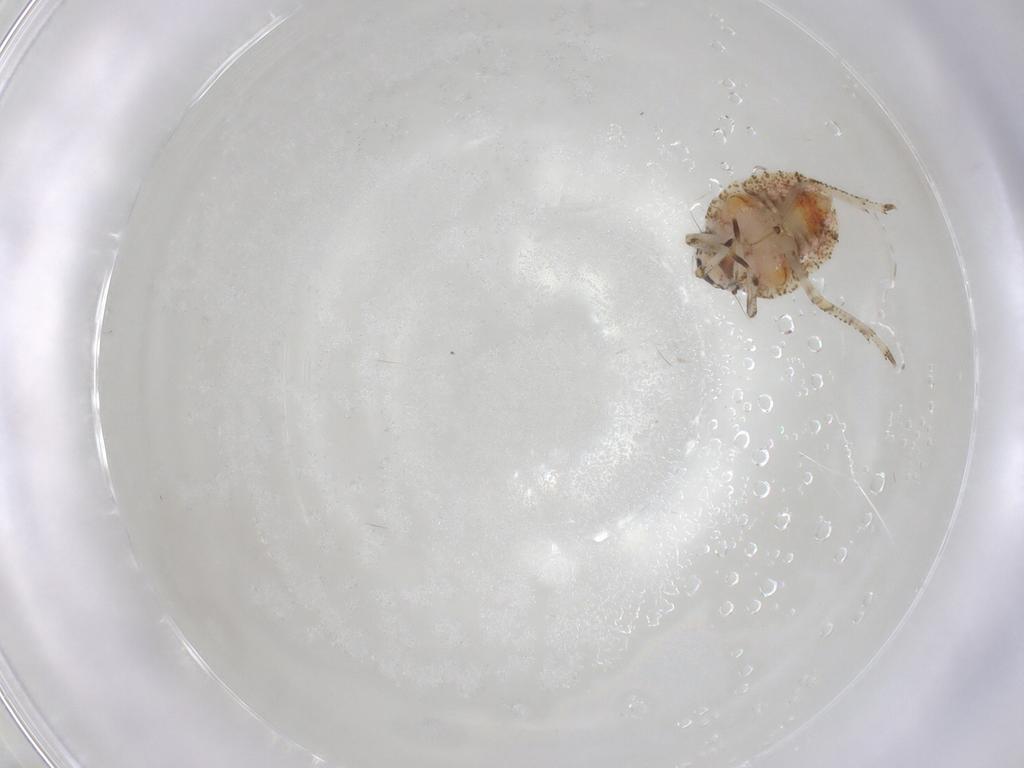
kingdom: Animalia
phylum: Arthropoda
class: Insecta
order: Hemiptera
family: Gengidae
